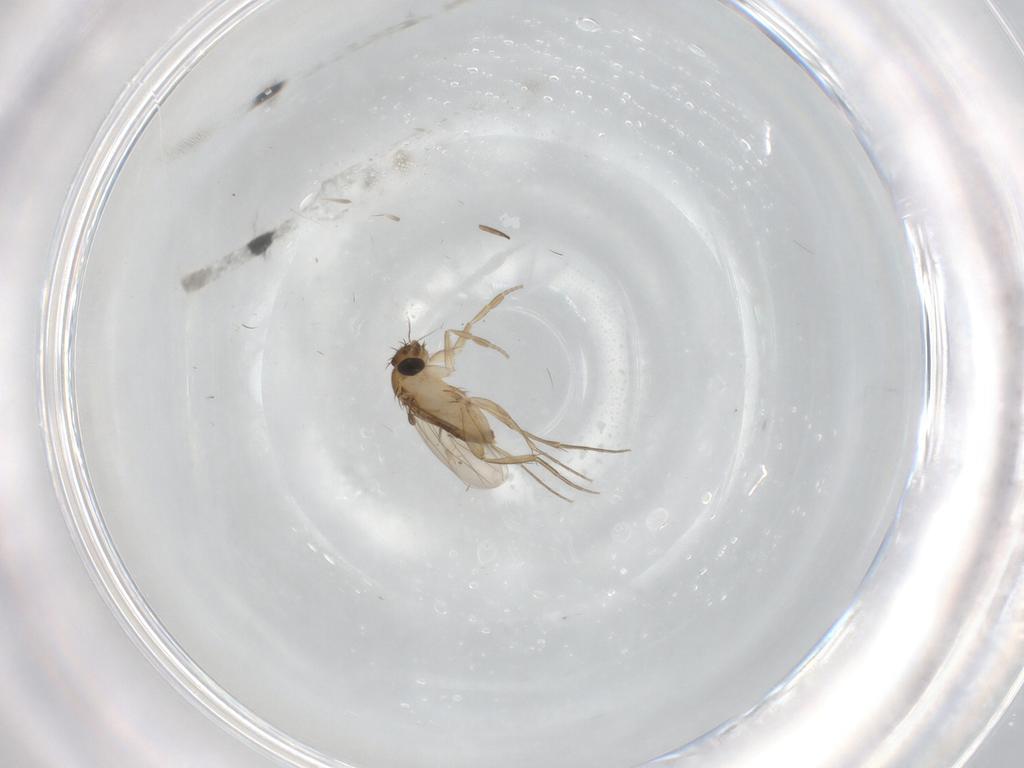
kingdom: Animalia
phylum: Arthropoda
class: Insecta
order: Diptera
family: Phoridae
